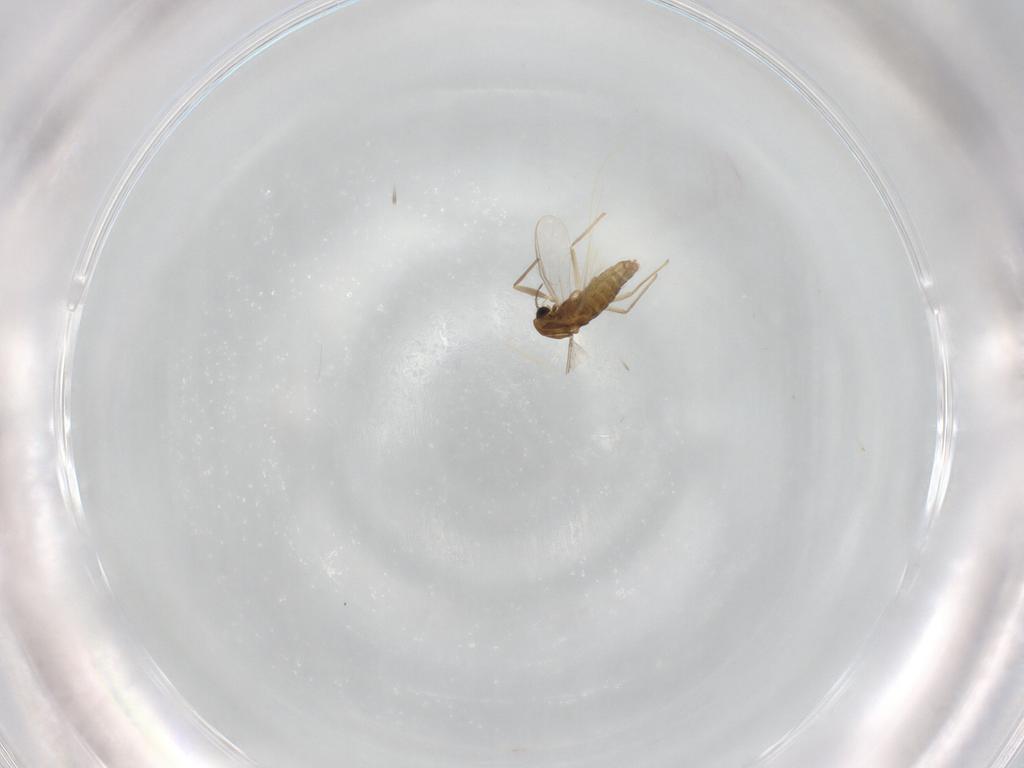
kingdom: Animalia
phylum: Arthropoda
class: Insecta
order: Diptera
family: Chironomidae
